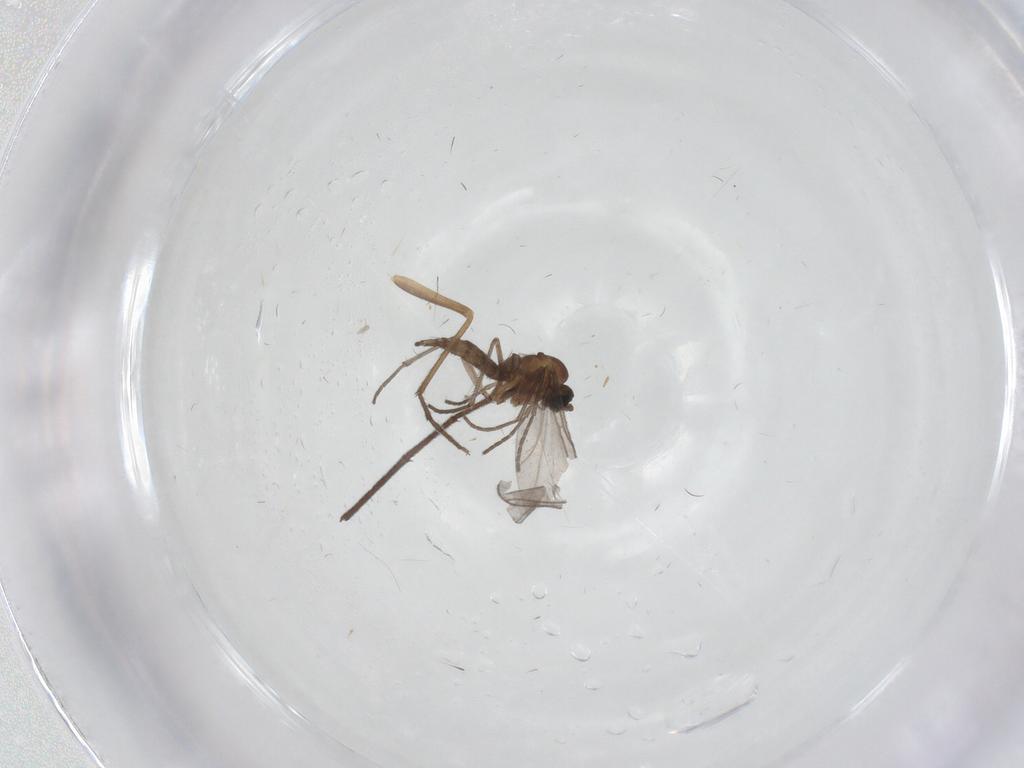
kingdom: Animalia
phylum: Arthropoda
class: Insecta
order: Diptera
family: Sciaridae
